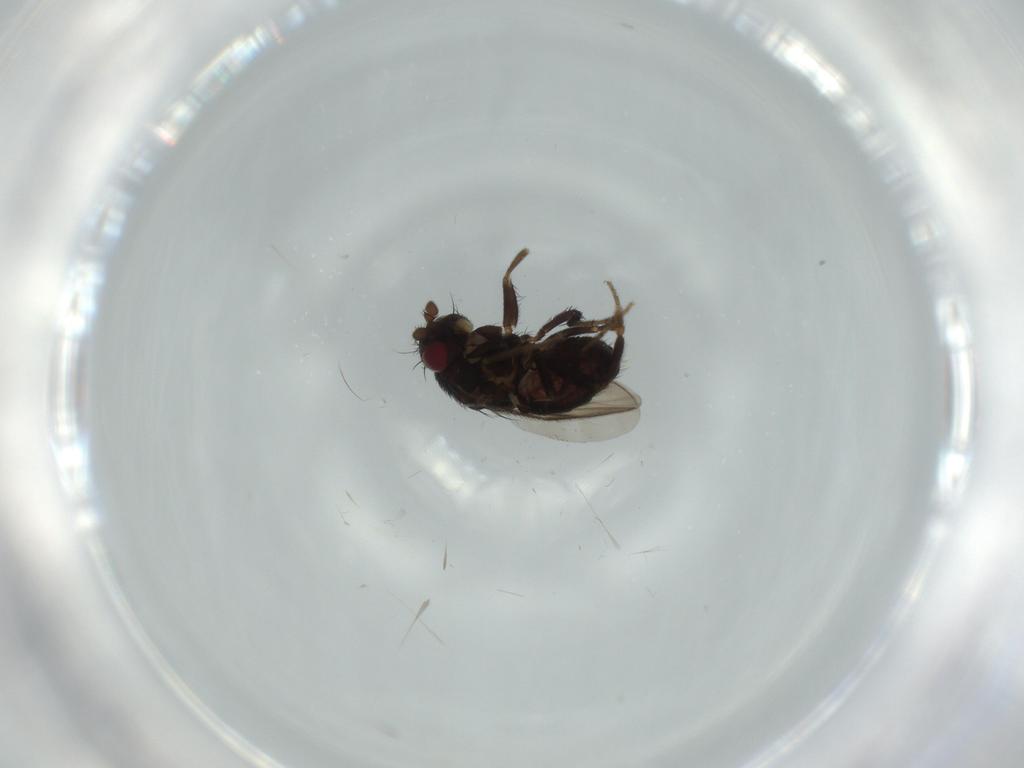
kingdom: Animalia
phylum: Arthropoda
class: Insecta
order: Diptera
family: Sphaeroceridae
